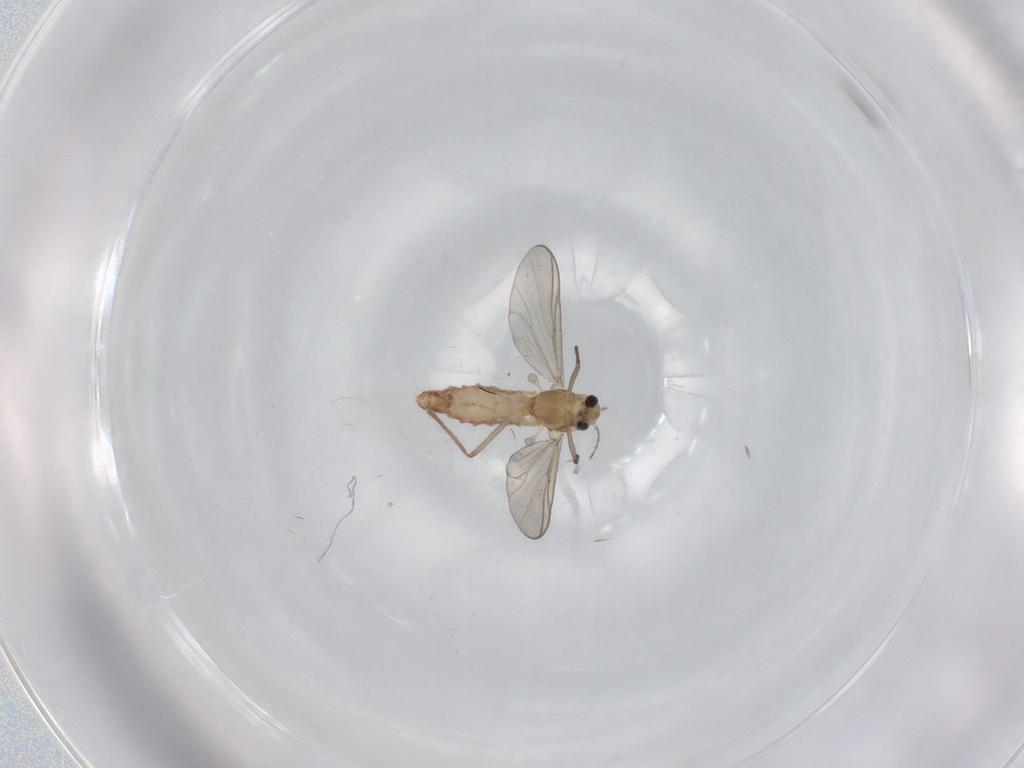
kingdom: Animalia
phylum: Arthropoda
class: Insecta
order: Diptera
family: Chironomidae
